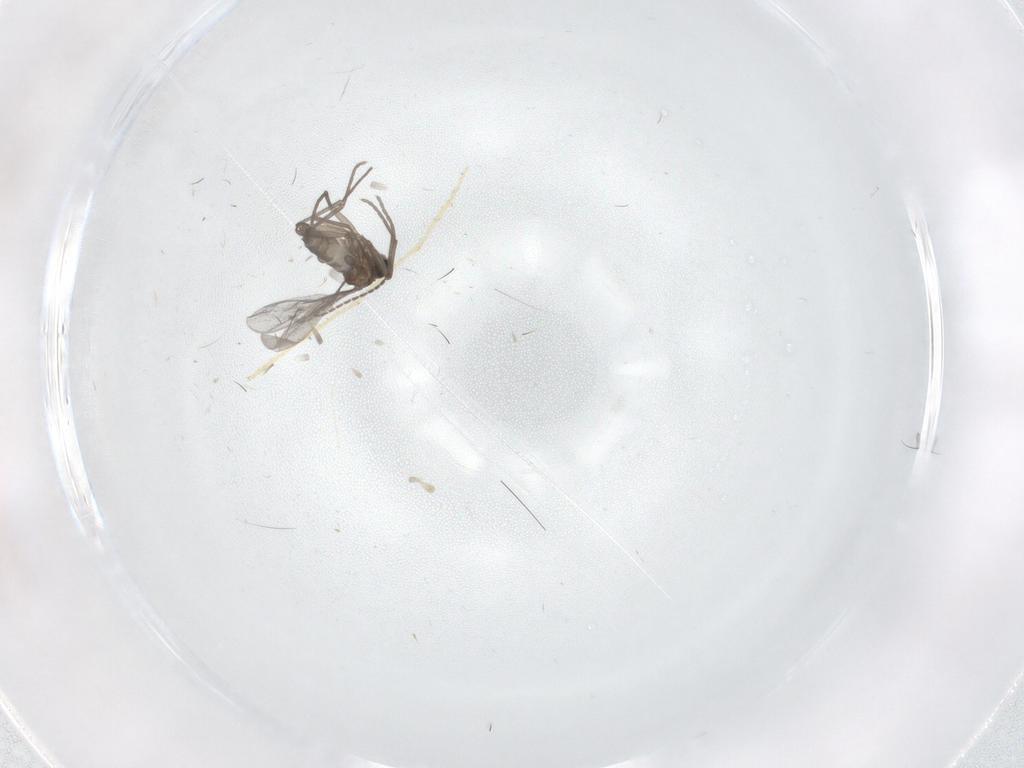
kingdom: Animalia
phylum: Arthropoda
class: Insecta
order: Diptera
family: Sciaridae
